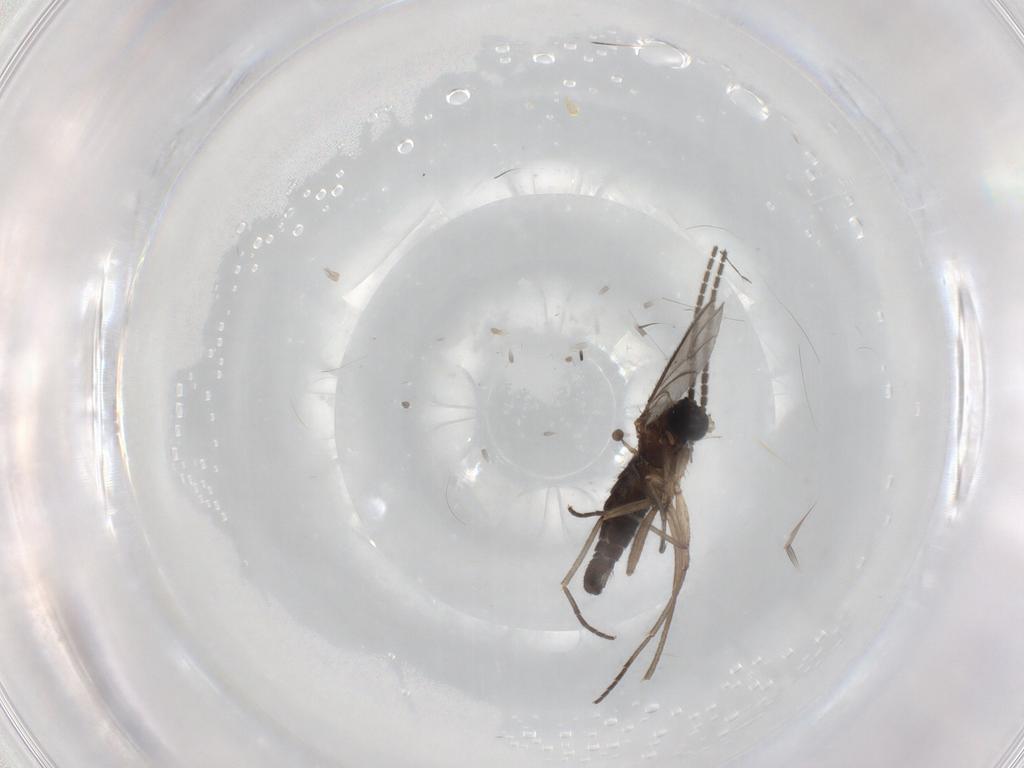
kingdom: Animalia
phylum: Arthropoda
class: Insecta
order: Diptera
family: Sciaridae
